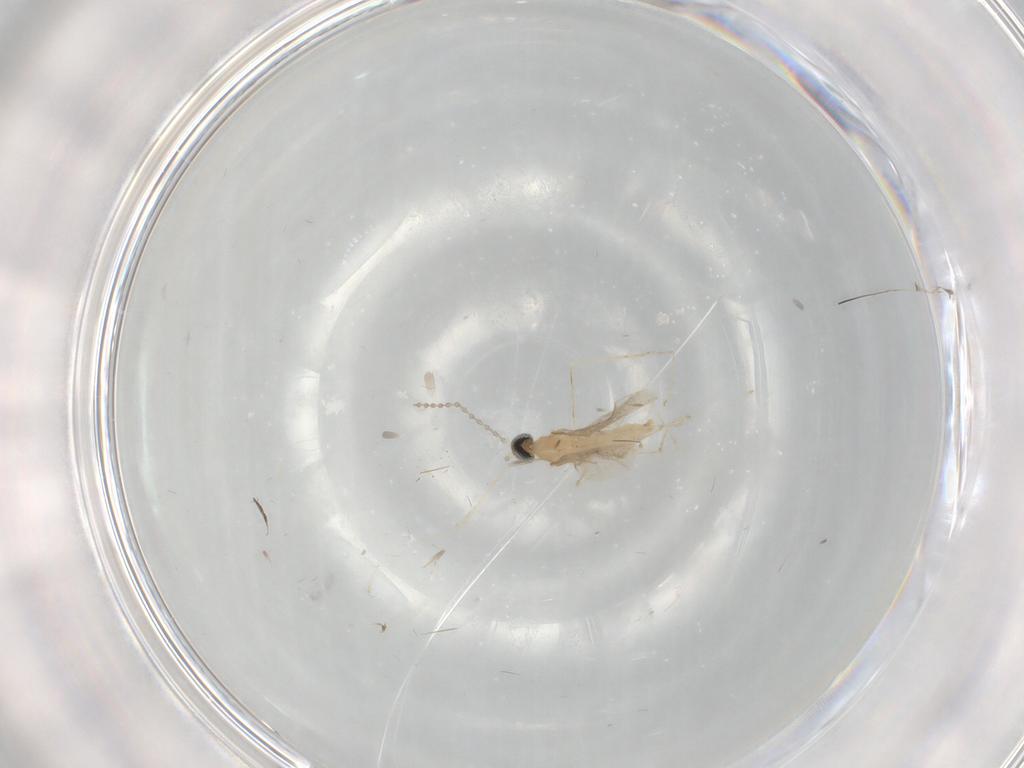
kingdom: Animalia
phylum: Arthropoda
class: Insecta
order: Diptera
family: Cecidomyiidae
